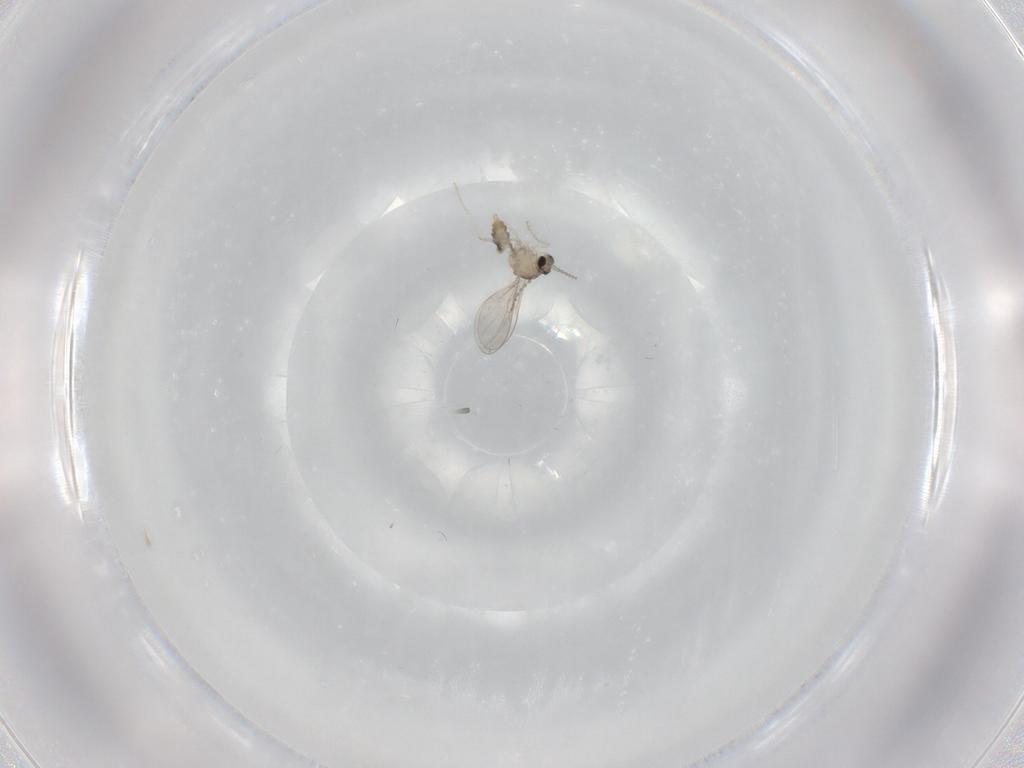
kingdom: Animalia
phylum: Arthropoda
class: Insecta
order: Diptera
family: Cecidomyiidae
